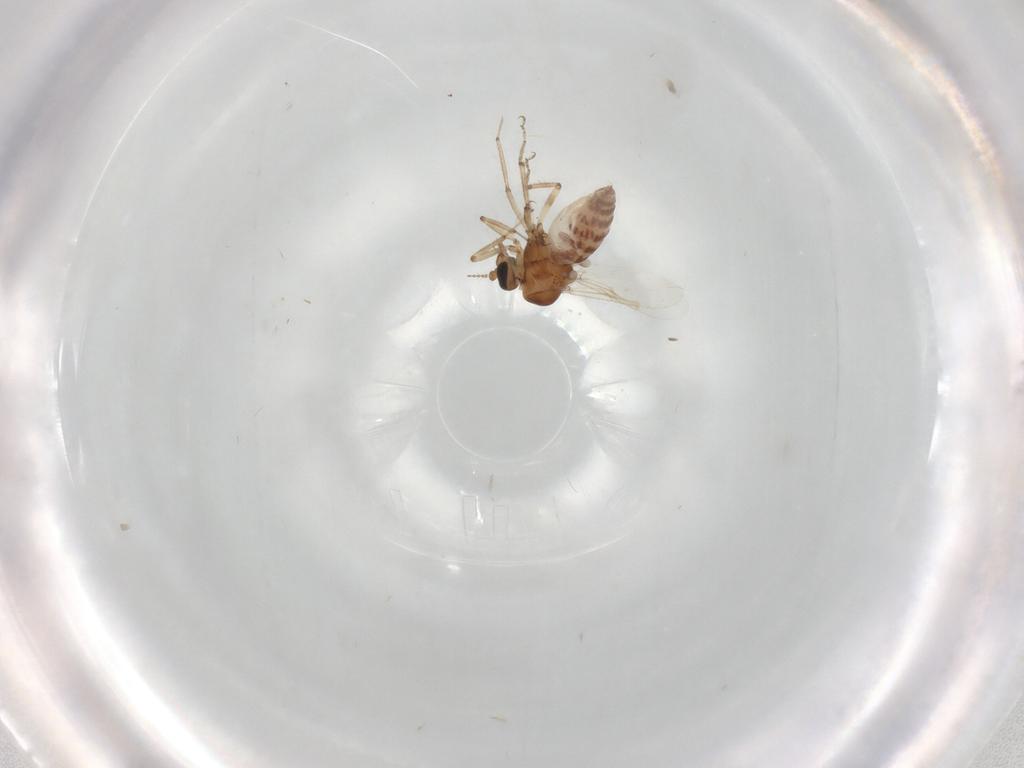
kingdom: Animalia
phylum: Arthropoda
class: Insecta
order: Diptera
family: Ceratopogonidae
